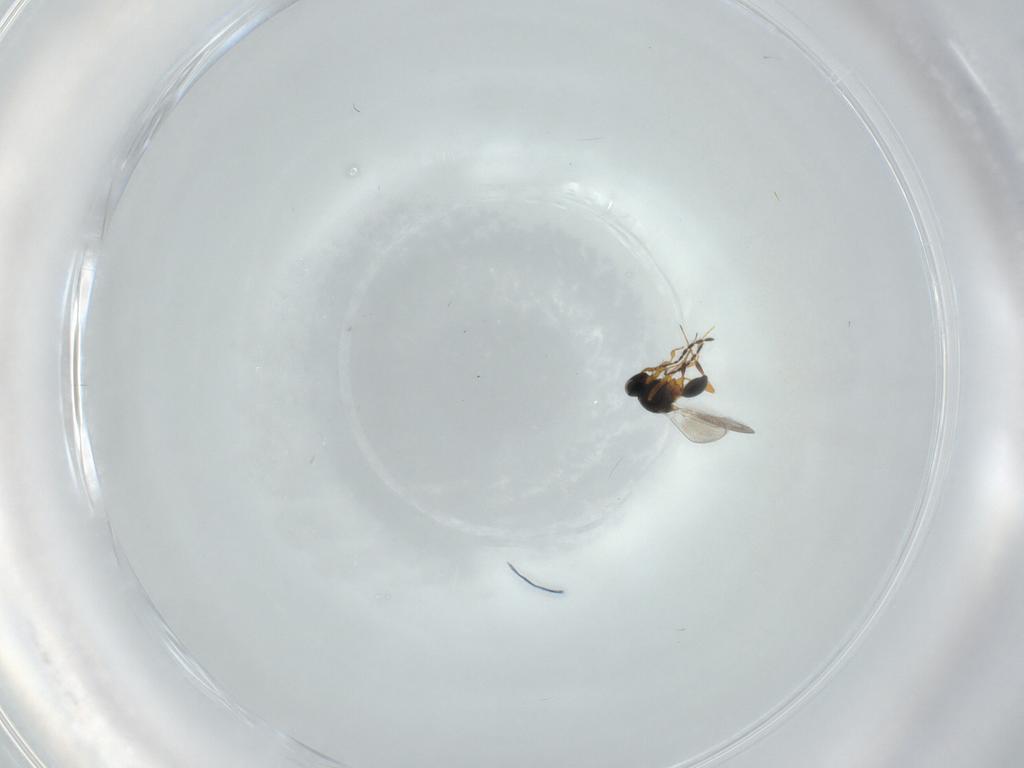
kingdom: Animalia
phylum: Arthropoda
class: Insecta
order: Hymenoptera
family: Platygastridae
